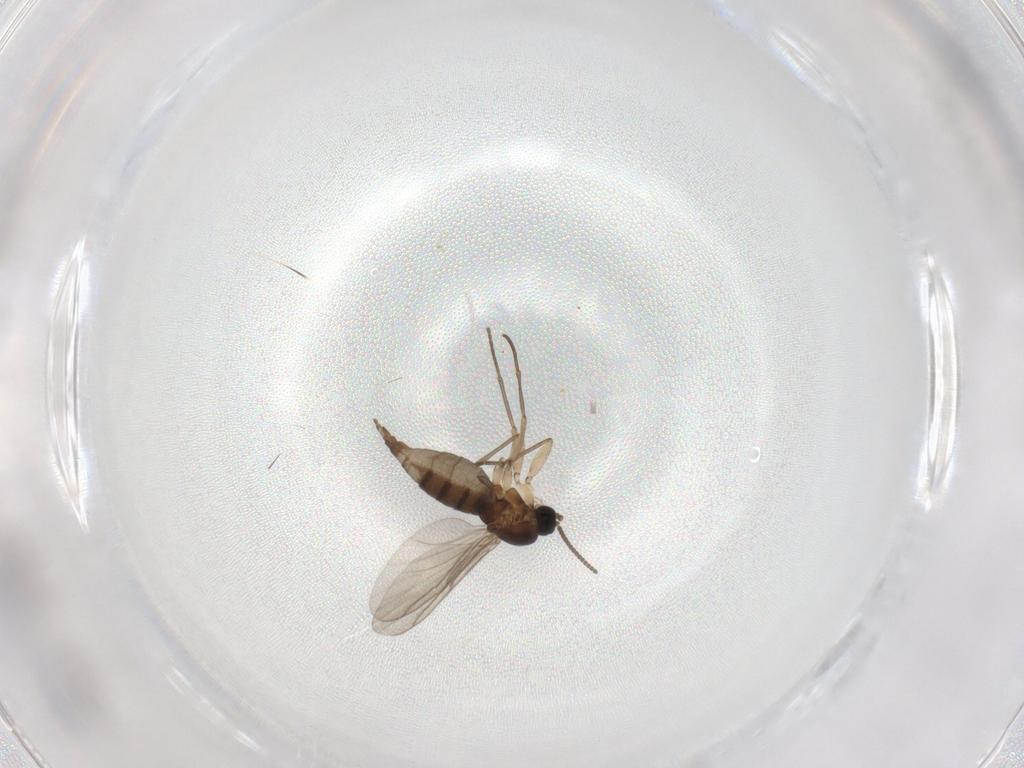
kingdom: Animalia
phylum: Arthropoda
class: Insecta
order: Diptera
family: Sciaridae
